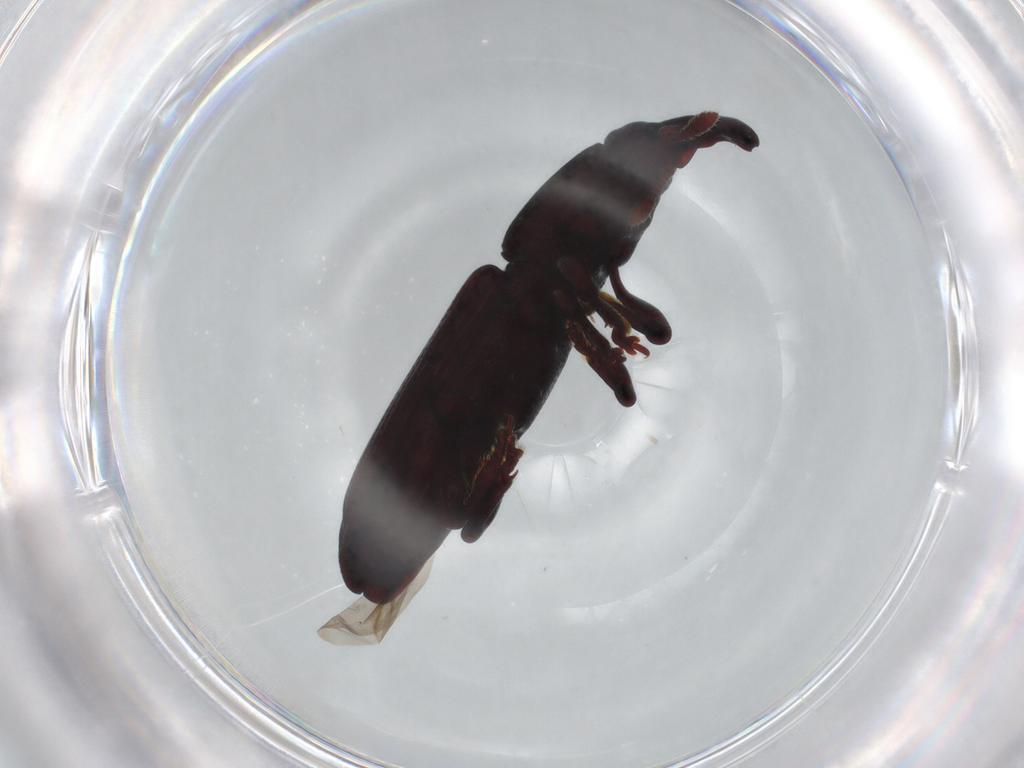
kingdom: Animalia
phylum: Arthropoda
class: Insecta
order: Coleoptera
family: Curculionidae
